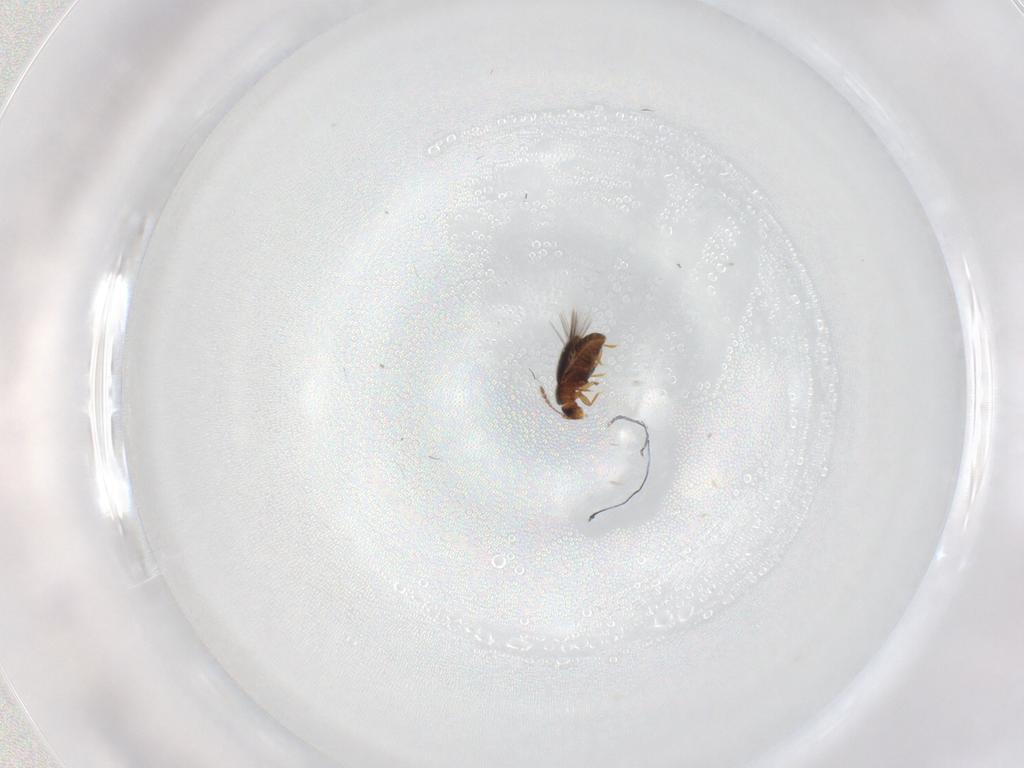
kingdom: Animalia
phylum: Arthropoda
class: Insecta
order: Coleoptera
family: Ptiliidae
